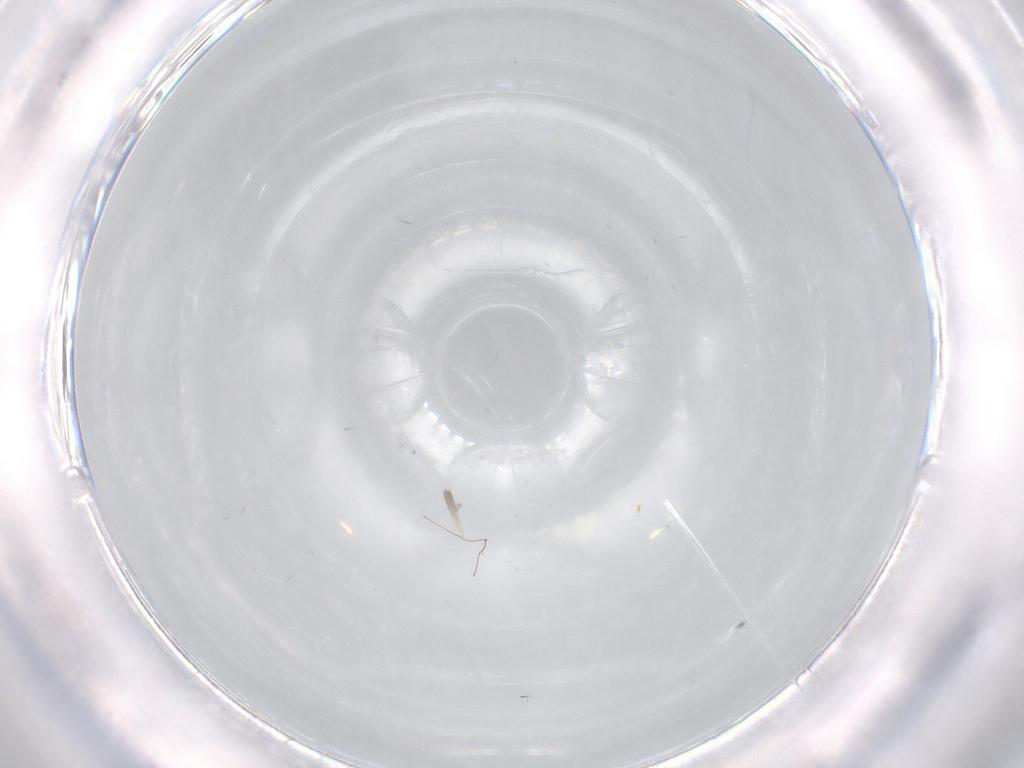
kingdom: Animalia
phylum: Arthropoda
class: Insecta
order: Hymenoptera
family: Scelionidae
